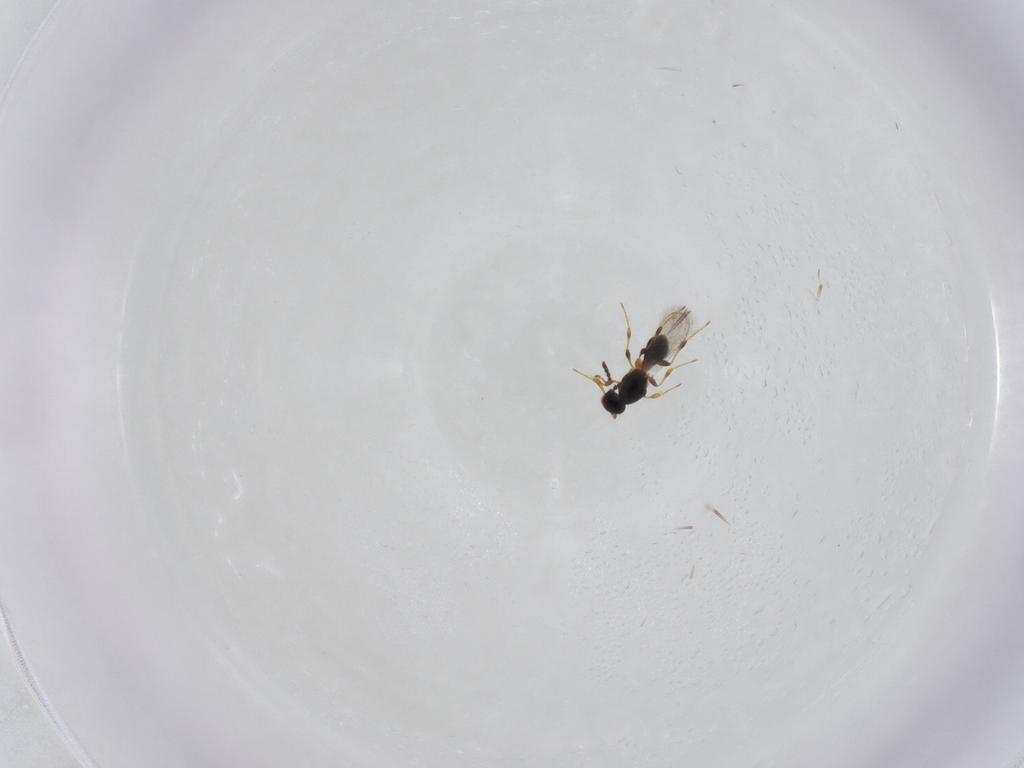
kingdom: Animalia
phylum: Arthropoda
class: Insecta
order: Hymenoptera
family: Platygastridae
